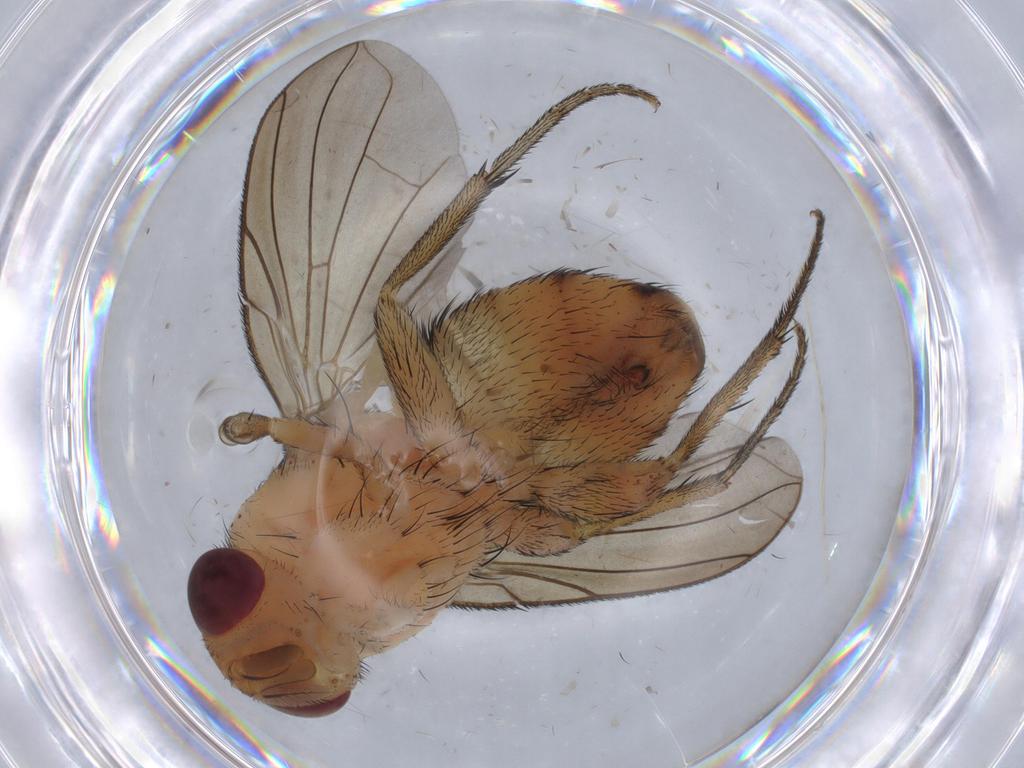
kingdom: Animalia
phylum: Arthropoda
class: Insecta
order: Diptera
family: Calliphoridae
